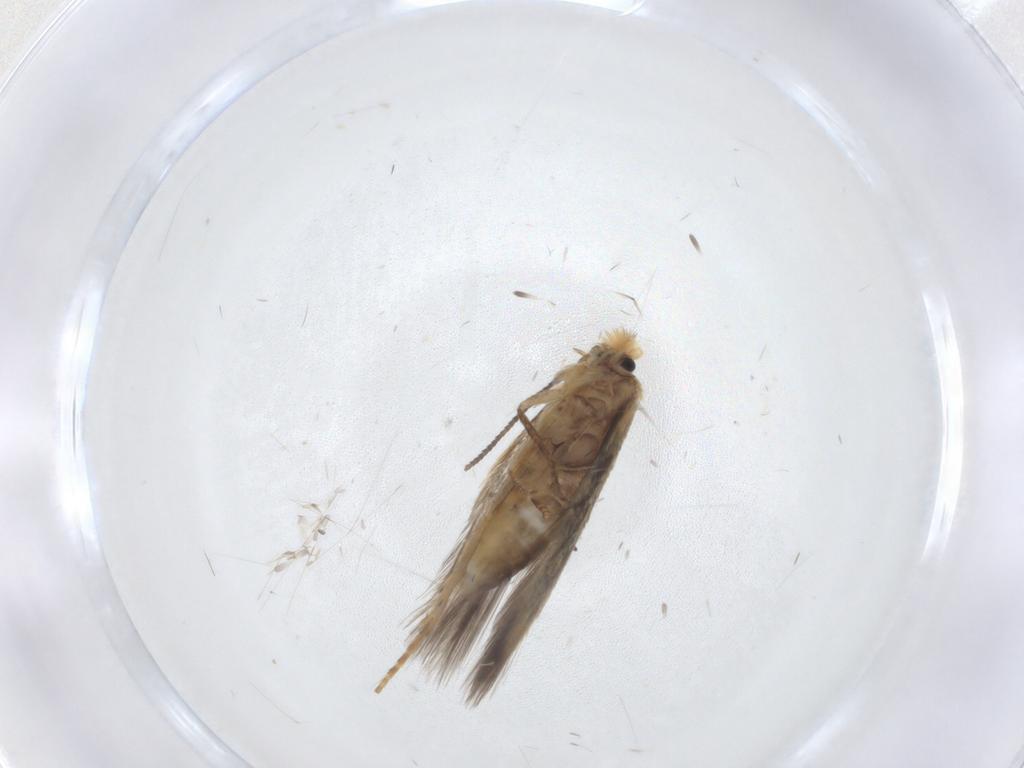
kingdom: Animalia
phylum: Arthropoda
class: Insecta
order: Lepidoptera
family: Nepticulidae
